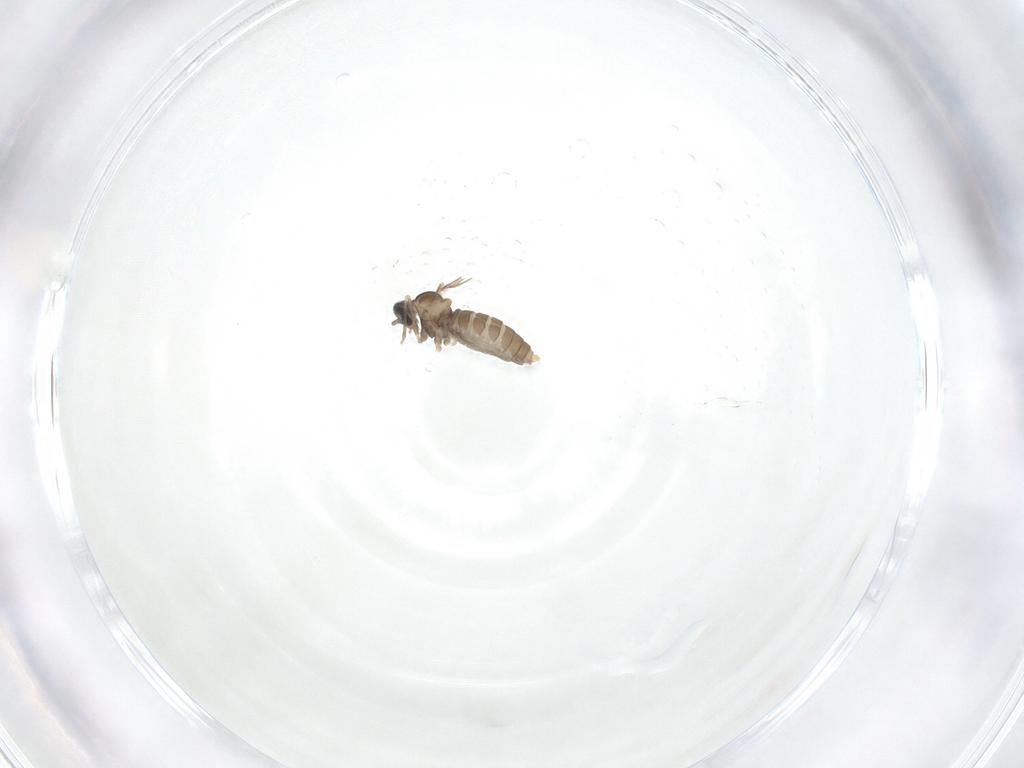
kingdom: Animalia
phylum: Arthropoda
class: Insecta
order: Diptera
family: Cecidomyiidae
